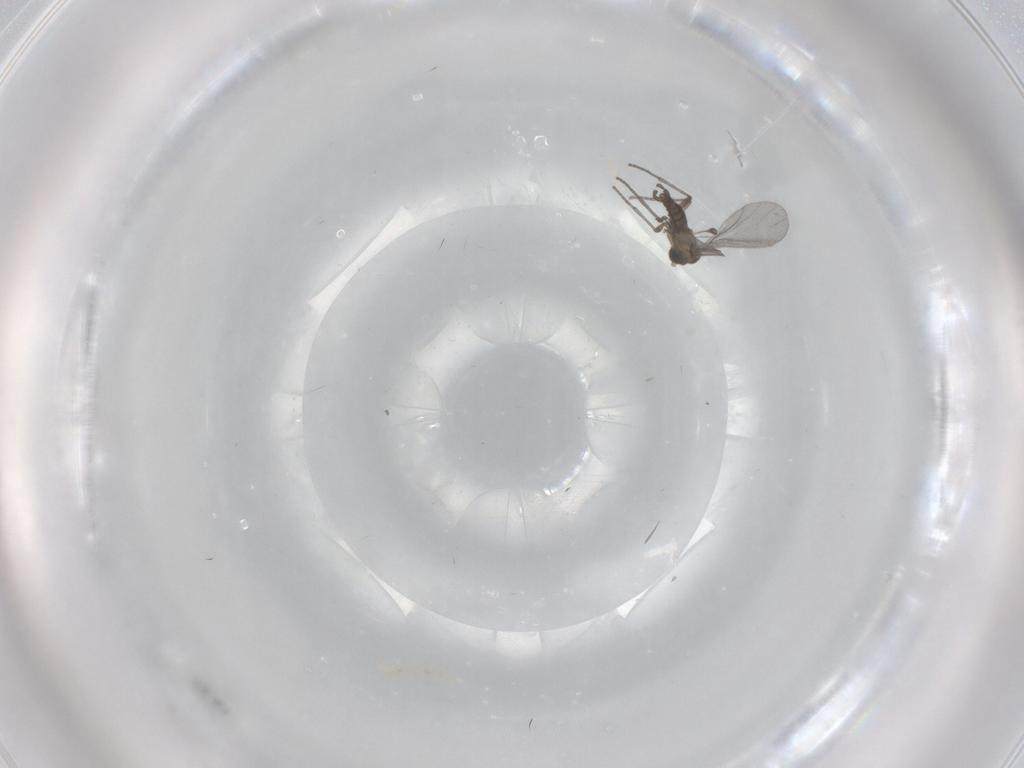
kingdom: Animalia
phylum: Arthropoda
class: Insecta
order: Diptera
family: Sciaridae
